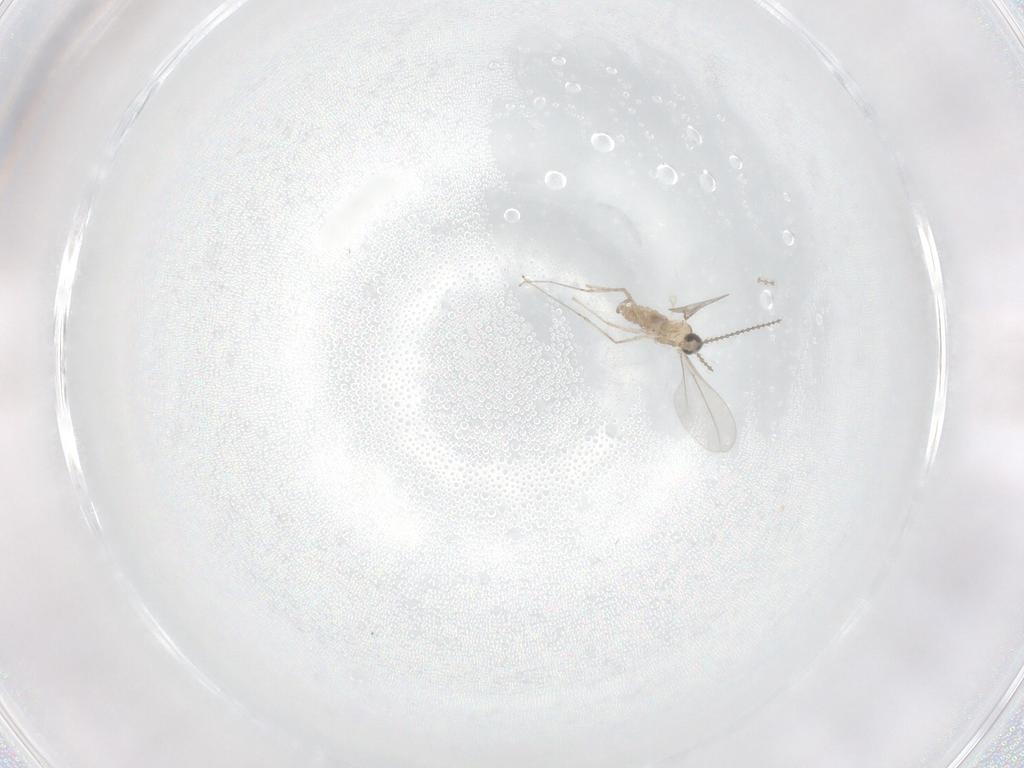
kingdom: Animalia
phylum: Arthropoda
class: Insecta
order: Diptera
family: Cecidomyiidae
